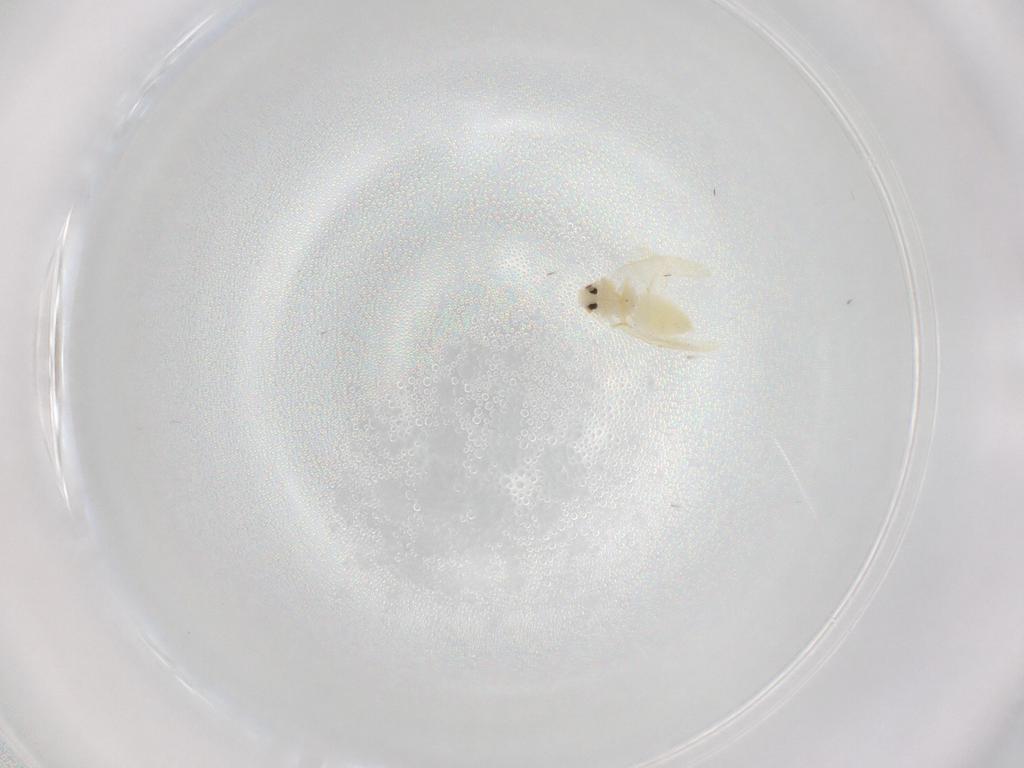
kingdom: Animalia
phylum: Arthropoda
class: Insecta
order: Hemiptera
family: Aleyrodidae
